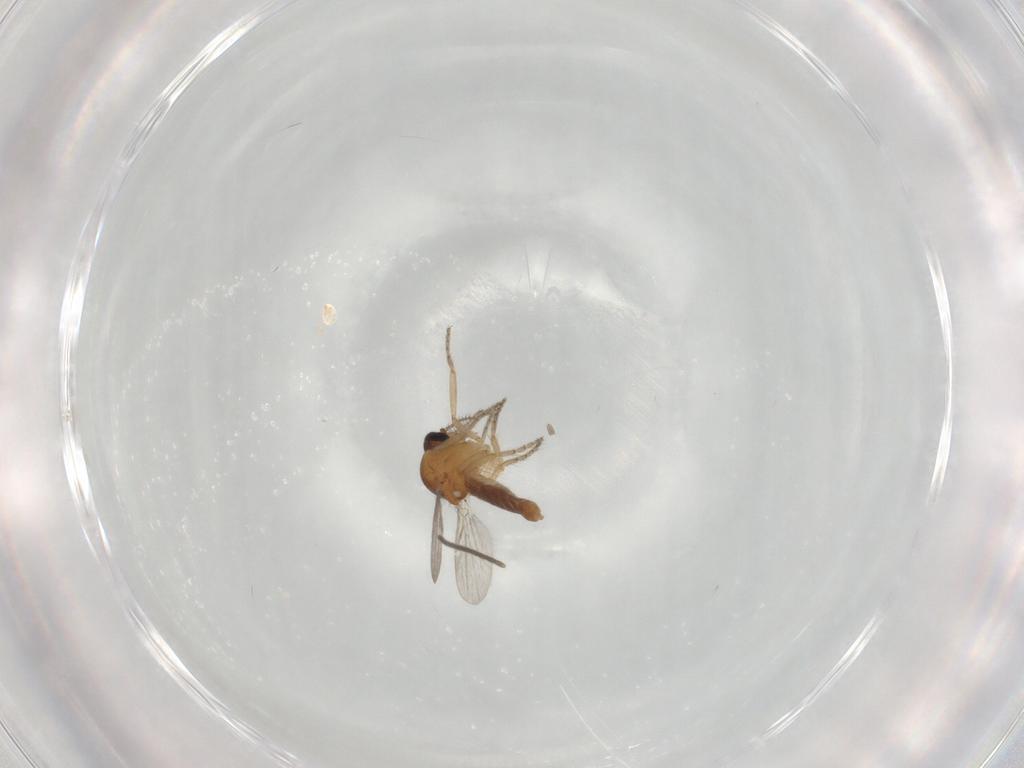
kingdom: Animalia
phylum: Arthropoda
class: Insecta
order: Diptera
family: Ceratopogonidae
